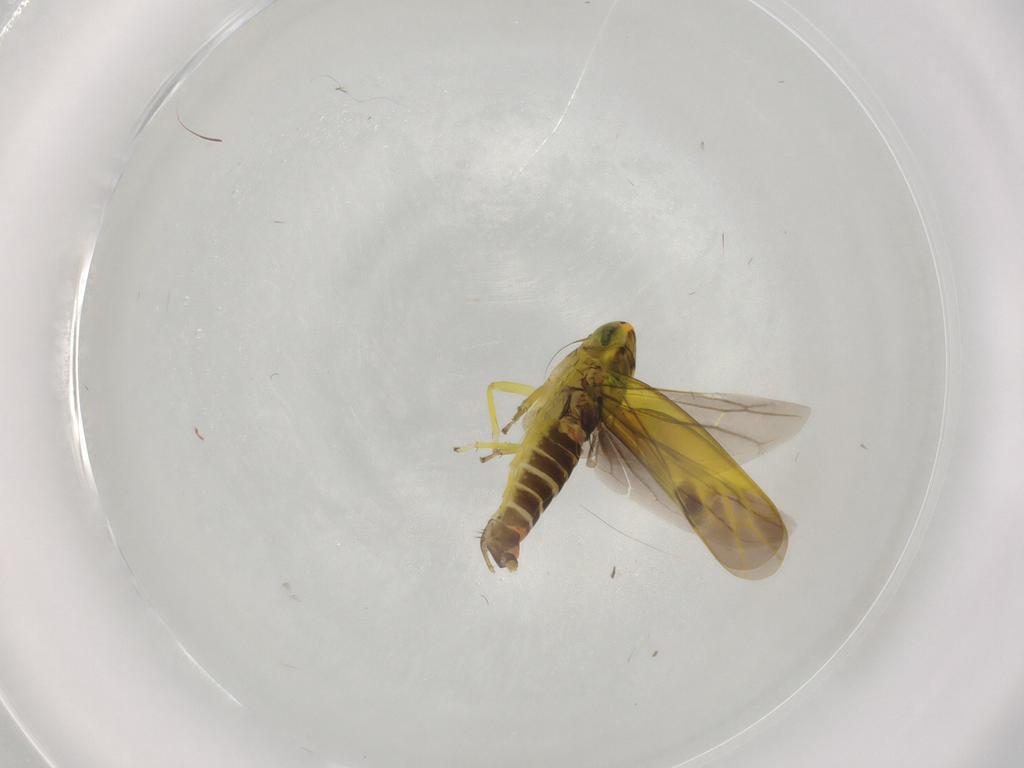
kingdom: Animalia
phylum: Arthropoda
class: Insecta
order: Hemiptera
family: Cicadellidae
